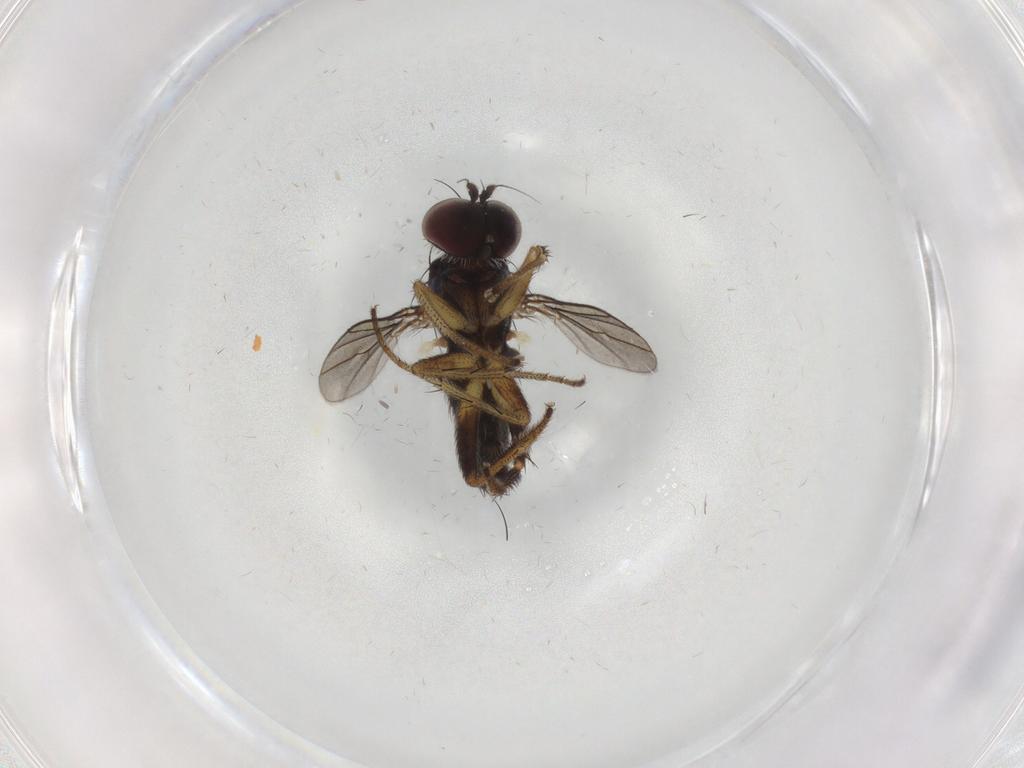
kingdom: Animalia
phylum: Arthropoda
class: Insecta
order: Diptera
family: Dolichopodidae
